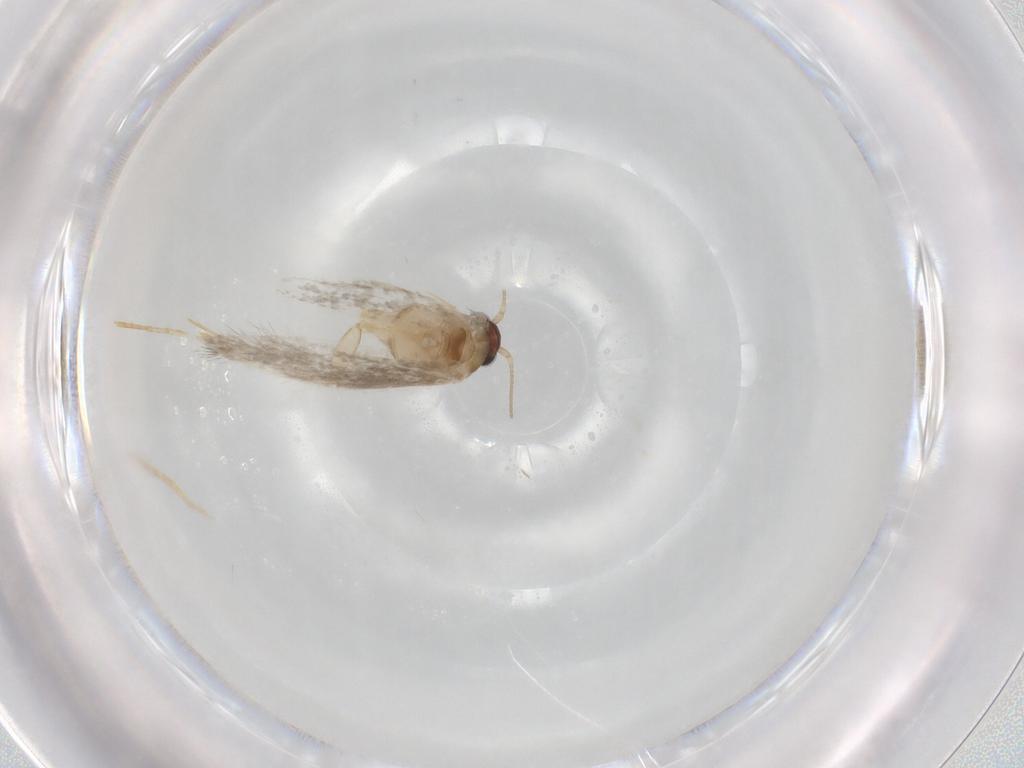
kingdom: Animalia
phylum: Arthropoda
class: Insecta
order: Lepidoptera
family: Tineidae
